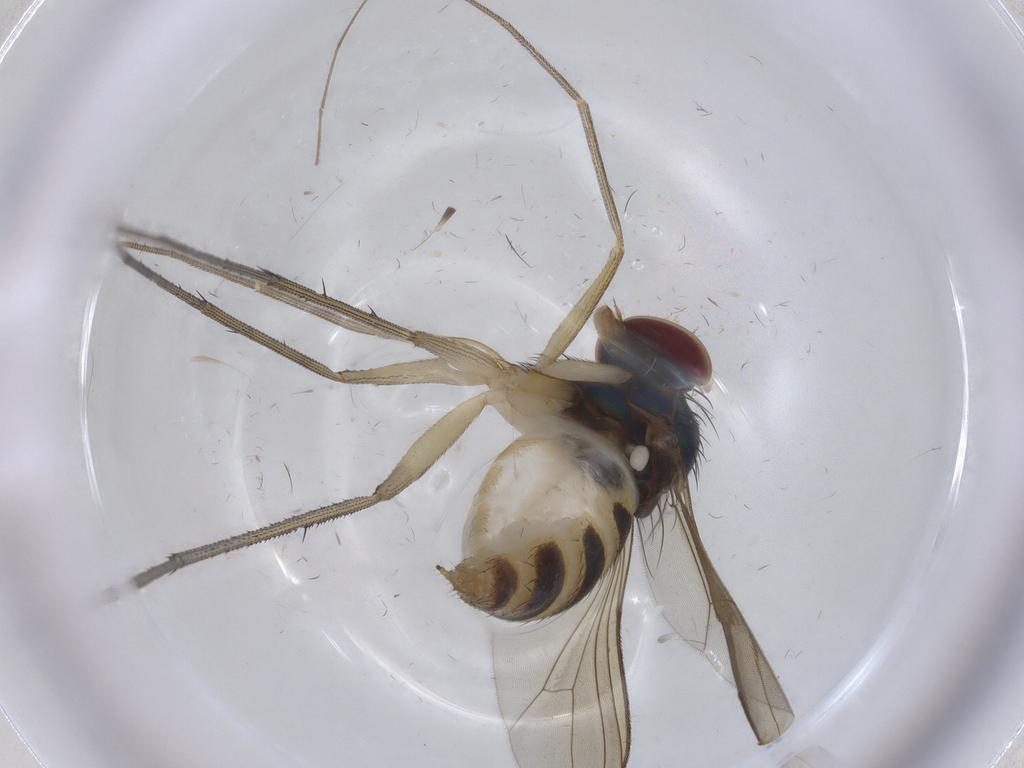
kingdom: Animalia
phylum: Arthropoda
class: Insecta
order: Diptera
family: Dolichopodidae
